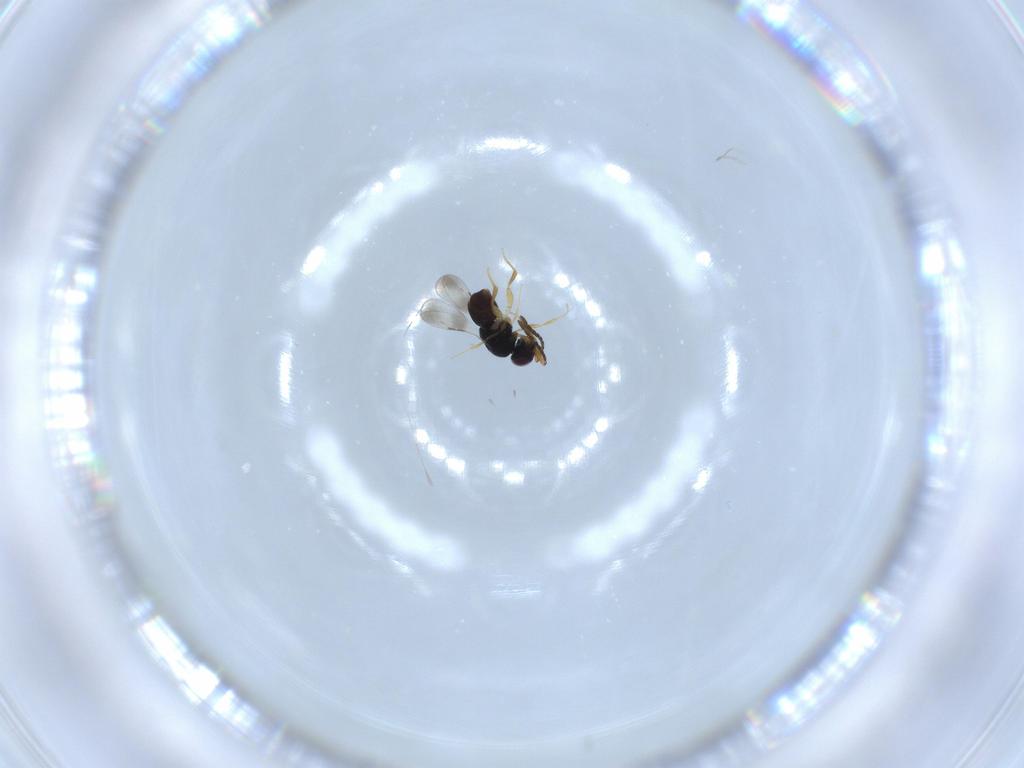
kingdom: Animalia
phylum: Arthropoda
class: Insecta
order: Hymenoptera
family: Ceraphronidae
